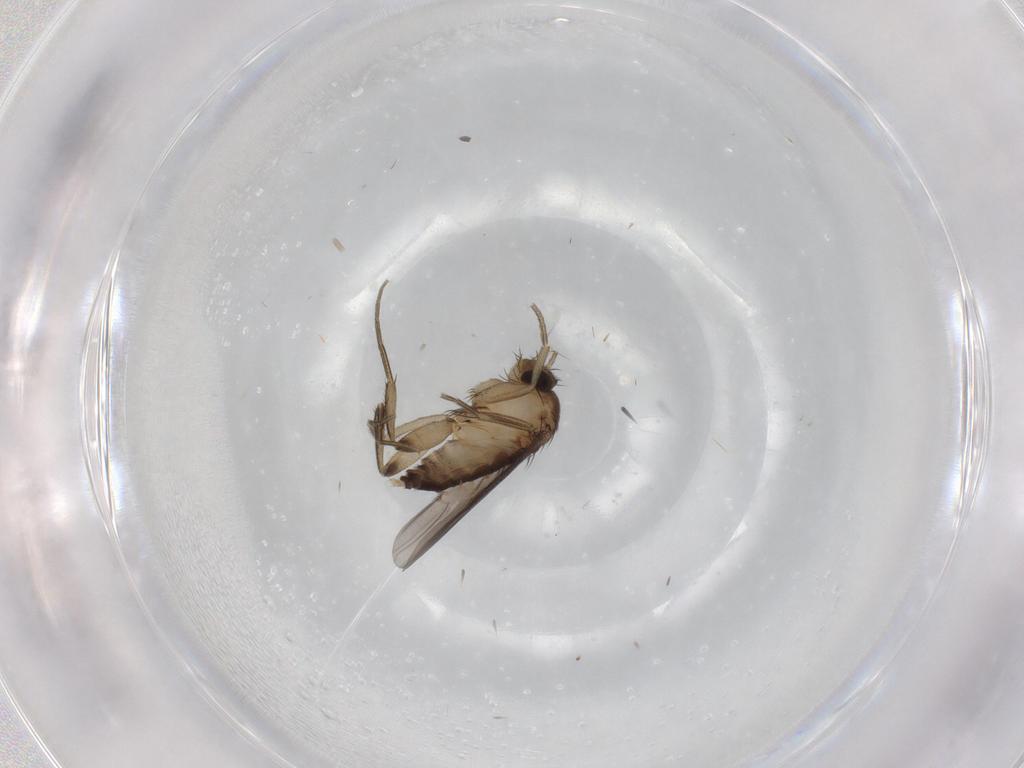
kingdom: Animalia
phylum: Arthropoda
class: Insecta
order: Diptera
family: Phoridae
